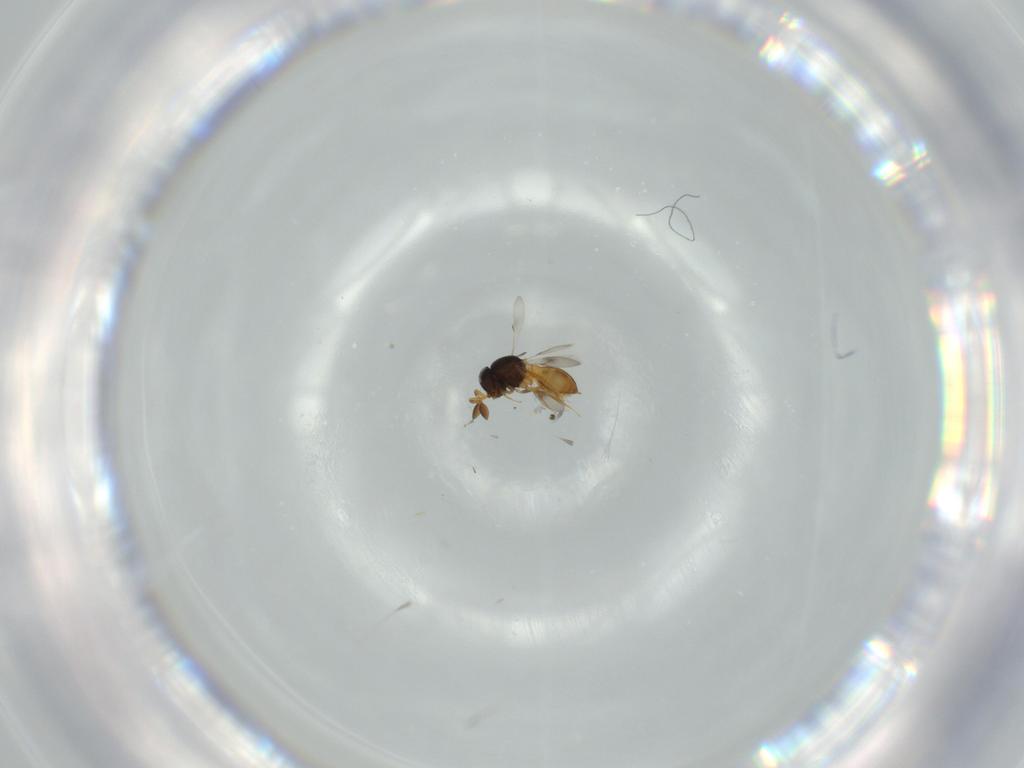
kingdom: Animalia
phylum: Arthropoda
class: Insecta
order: Hymenoptera
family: Scelionidae
